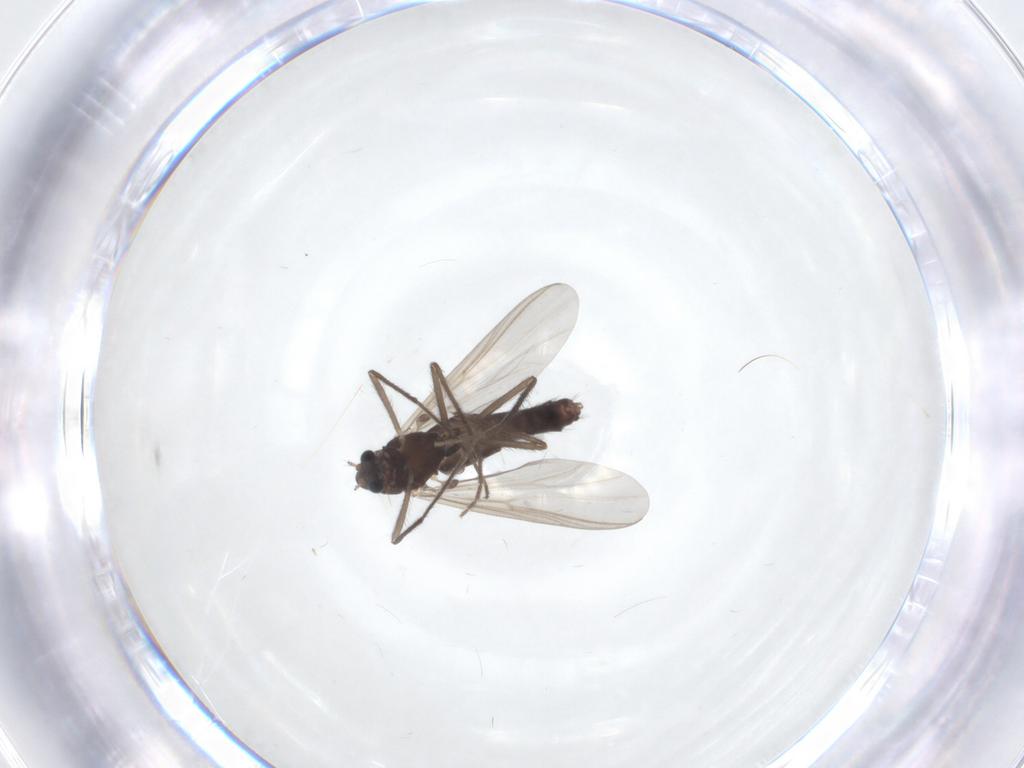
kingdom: Animalia
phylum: Arthropoda
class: Insecta
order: Diptera
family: Chironomidae
